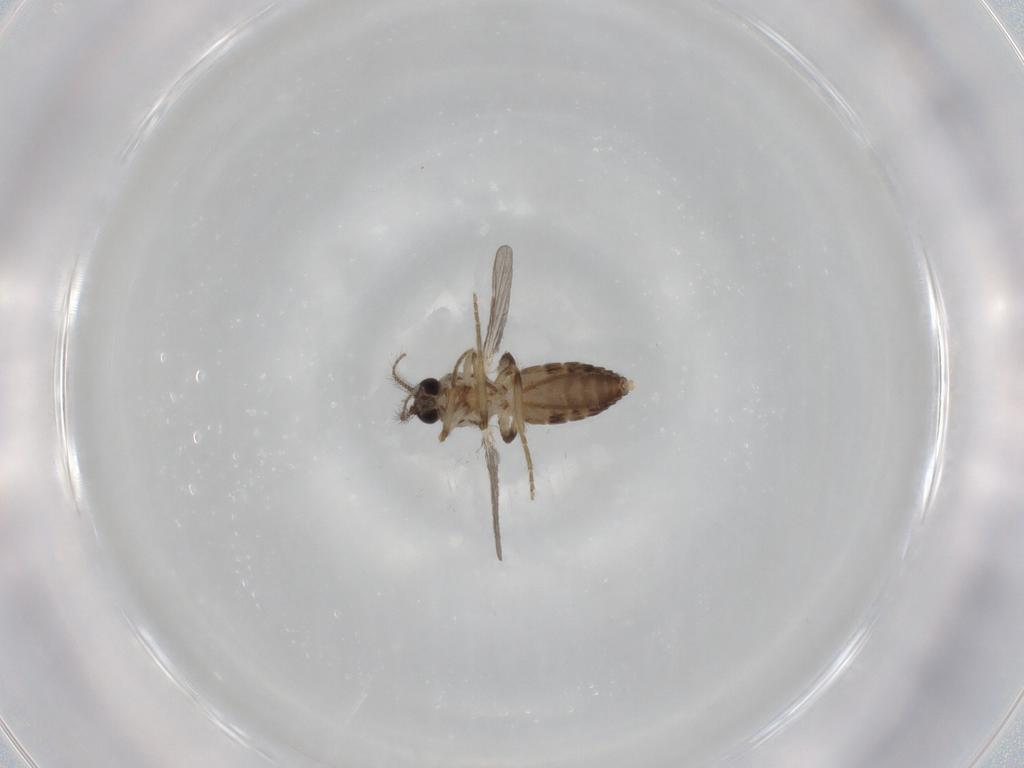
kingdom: Animalia
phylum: Arthropoda
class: Insecta
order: Diptera
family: Ceratopogonidae
